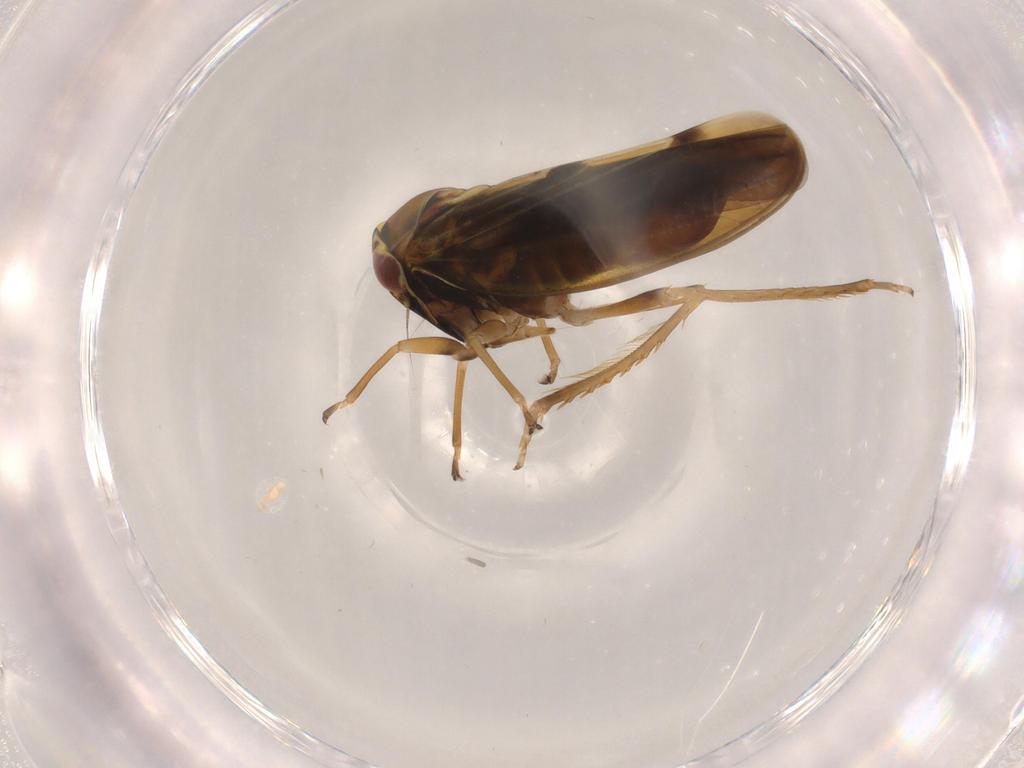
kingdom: Animalia
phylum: Arthropoda
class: Insecta
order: Hemiptera
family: Cicadellidae
